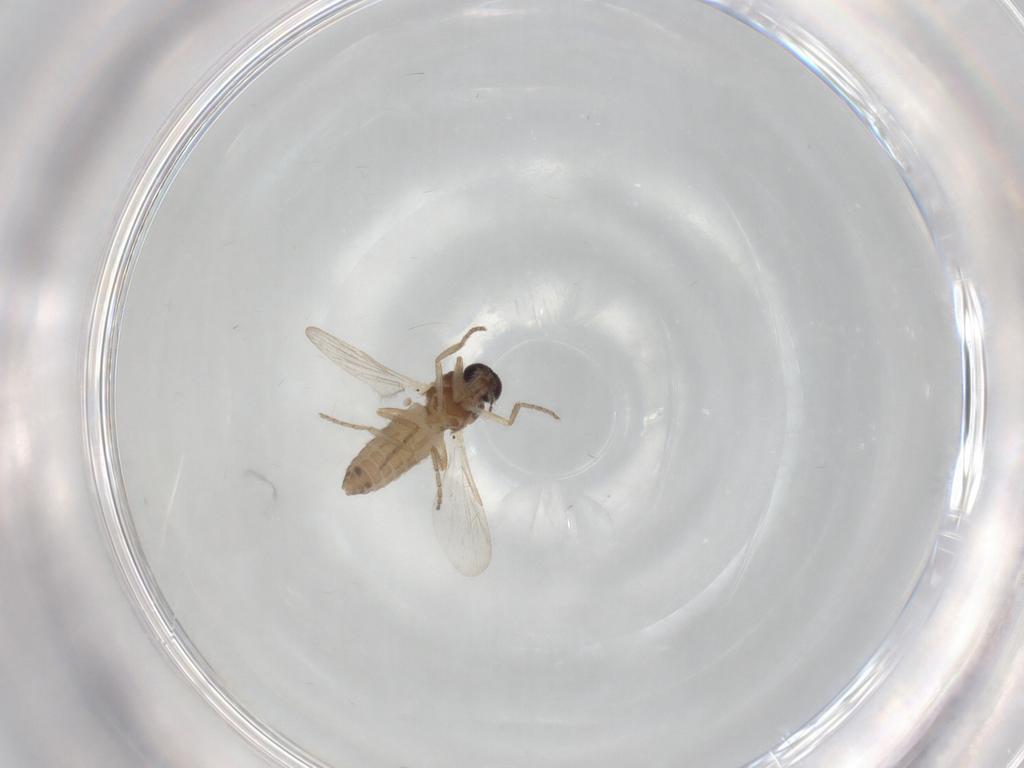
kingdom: Animalia
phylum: Arthropoda
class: Insecta
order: Diptera
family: Ceratopogonidae
